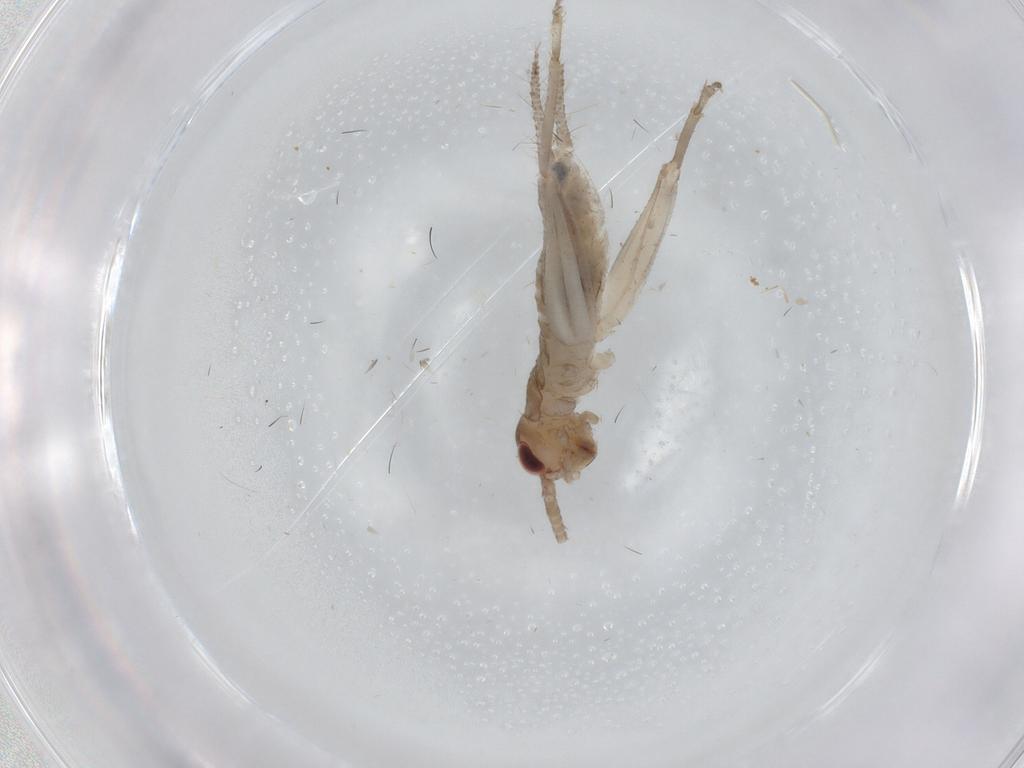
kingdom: Animalia
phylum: Arthropoda
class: Insecta
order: Orthoptera
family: Gryllidae
